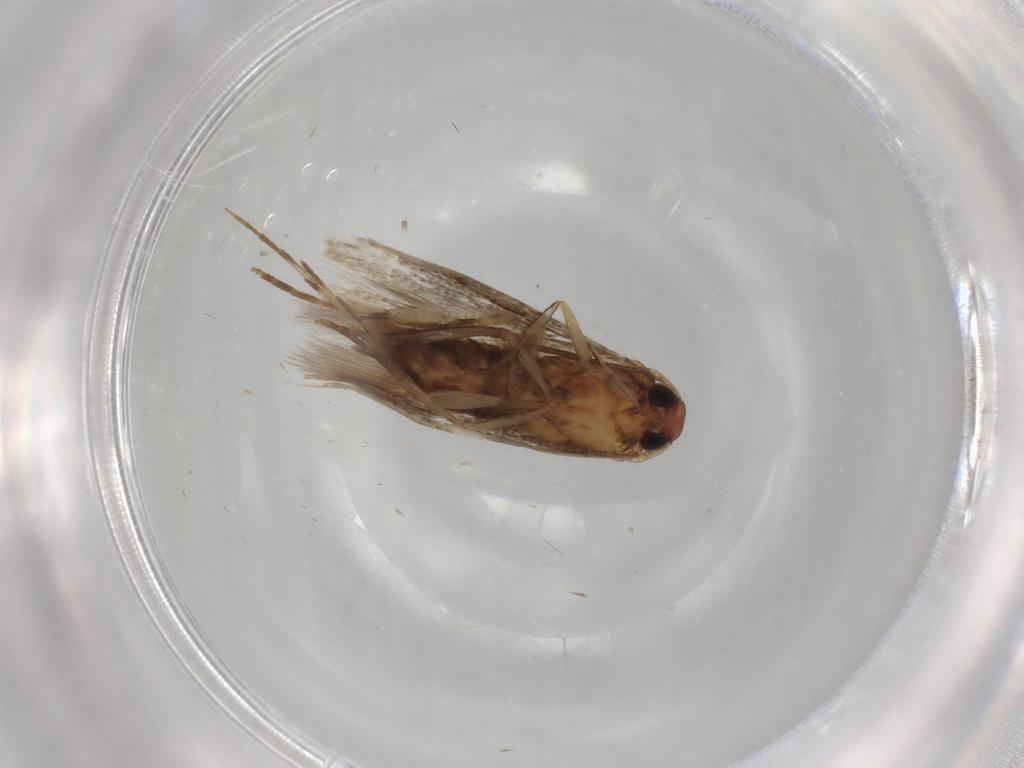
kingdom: Animalia
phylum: Arthropoda
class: Insecta
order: Lepidoptera
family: Cosmopterigidae
